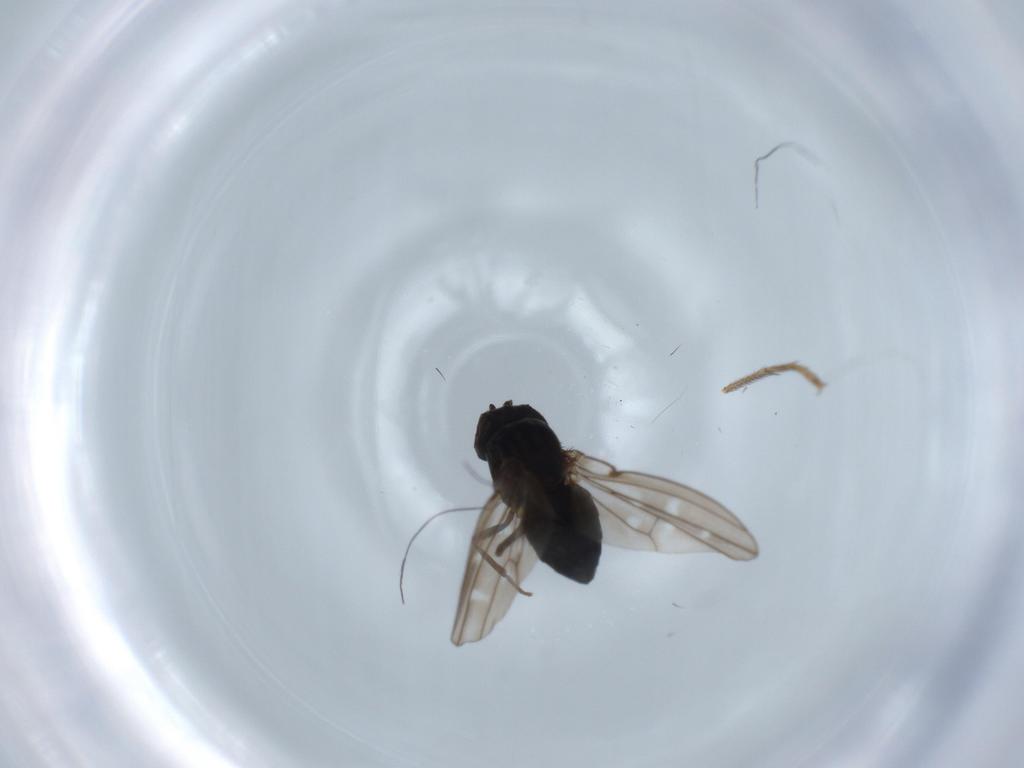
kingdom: Animalia
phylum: Arthropoda
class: Insecta
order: Diptera
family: Ephydridae
